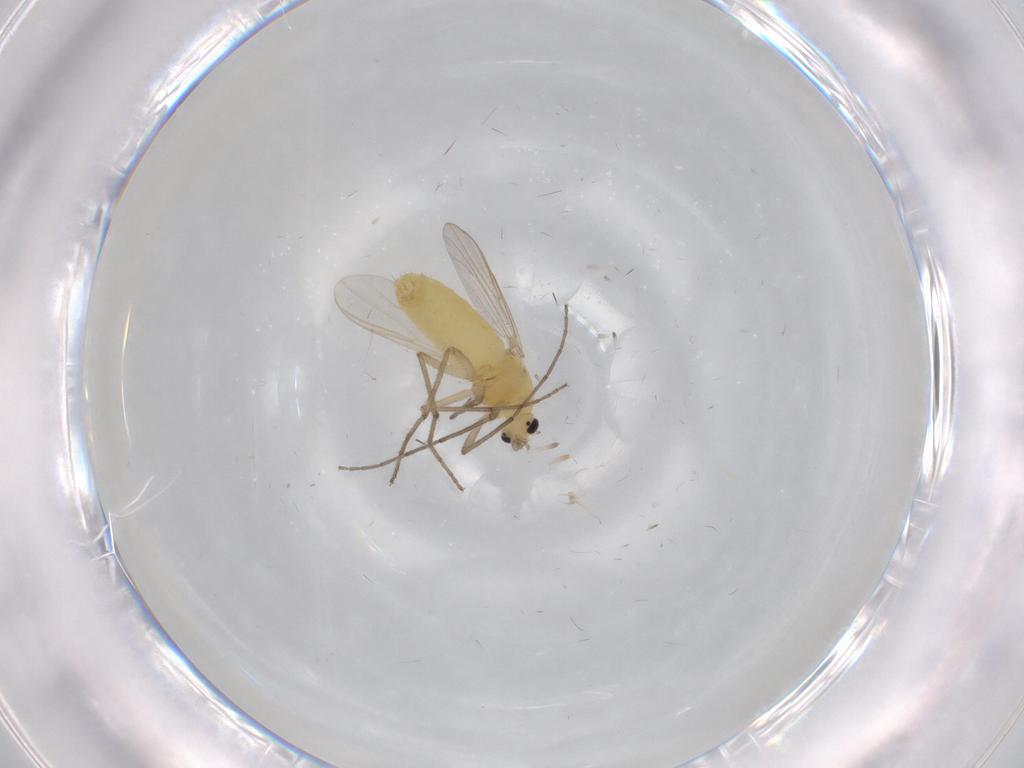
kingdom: Animalia
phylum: Arthropoda
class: Insecta
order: Diptera
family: Chironomidae
